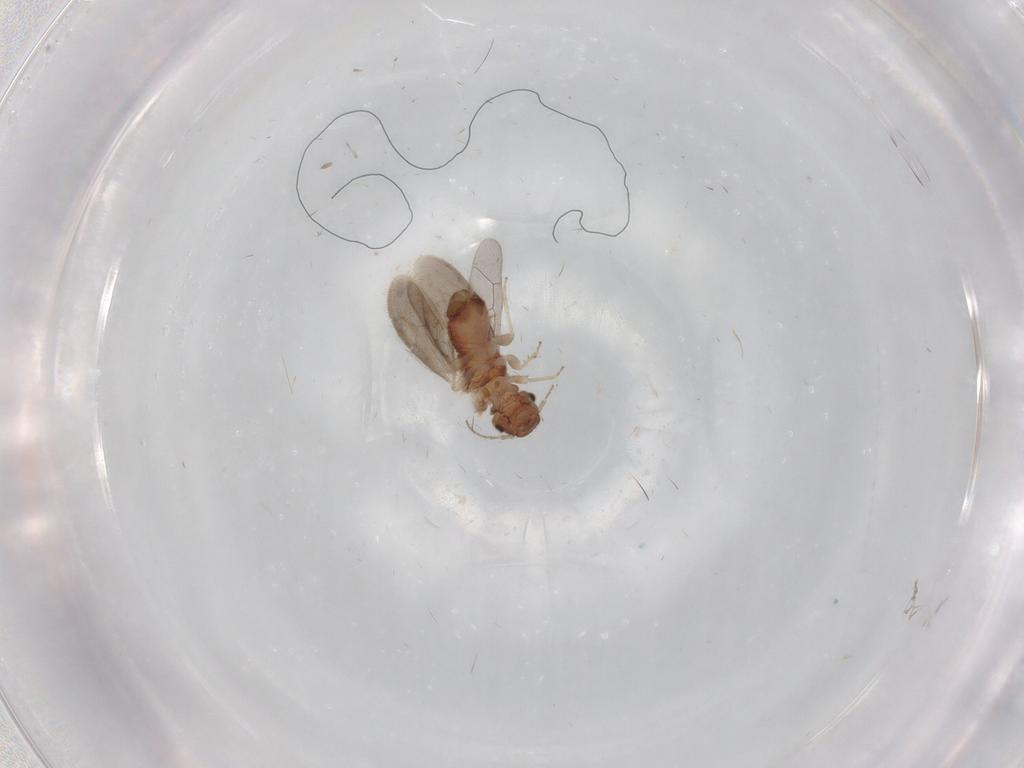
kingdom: Animalia
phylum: Arthropoda
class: Insecta
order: Psocodea
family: Archipsocidae
